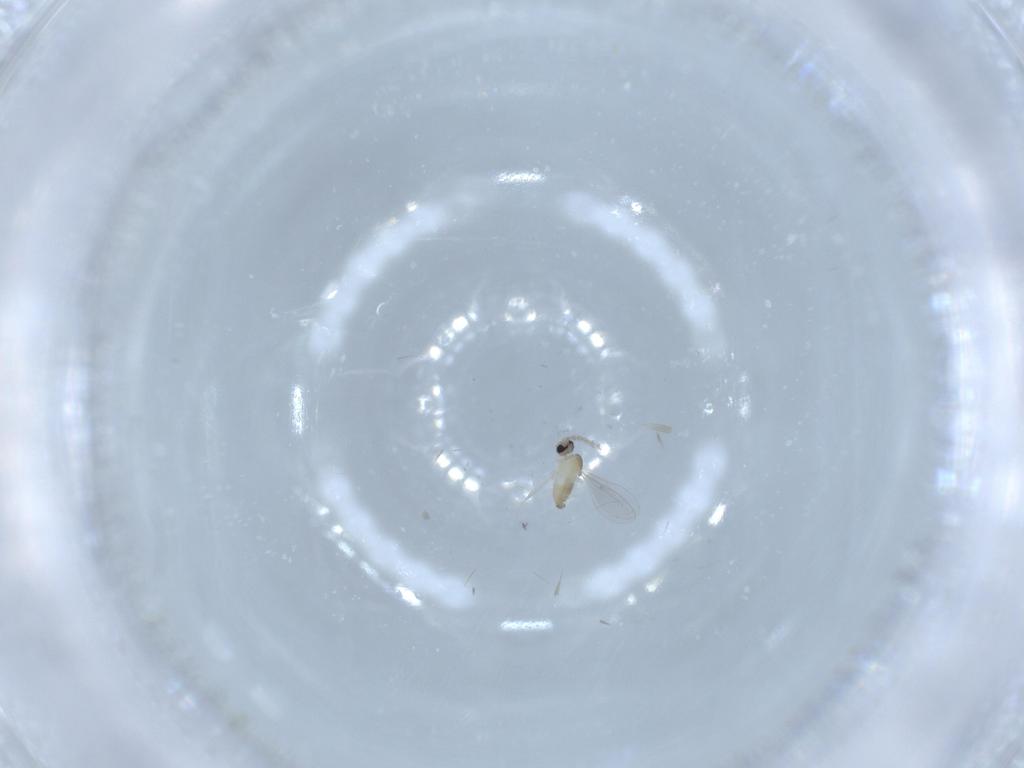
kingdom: Animalia
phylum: Arthropoda
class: Insecta
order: Diptera
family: Cecidomyiidae
